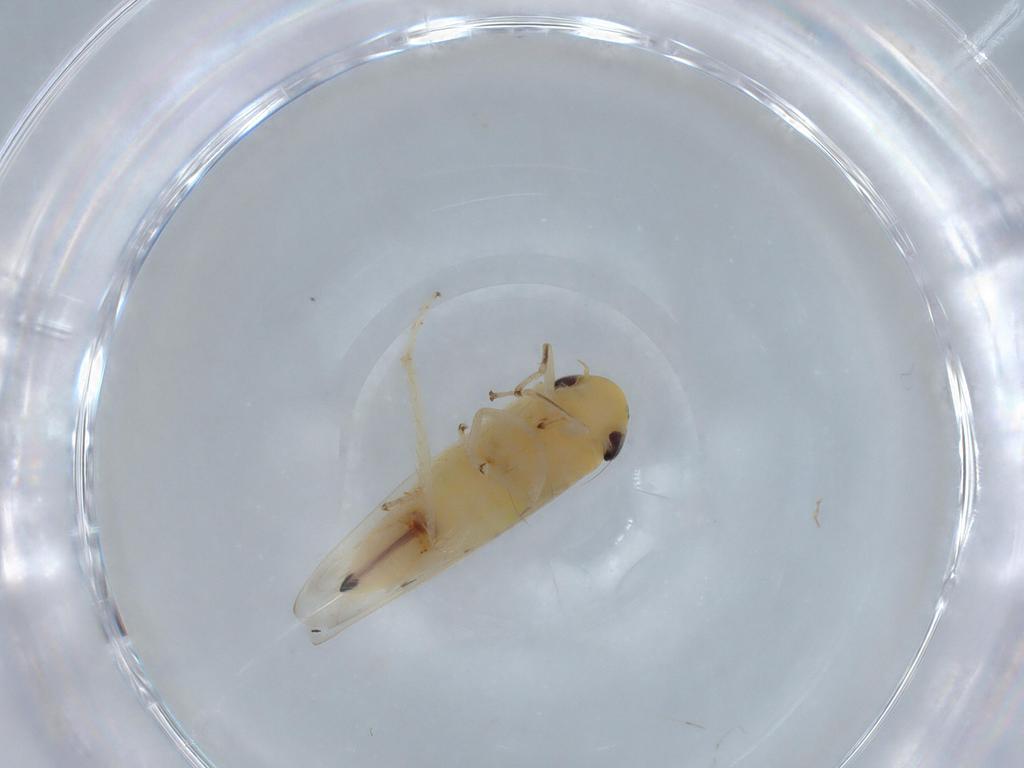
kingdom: Animalia
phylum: Arthropoda
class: Insecta
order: Hemiptera
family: Cicadellidae
